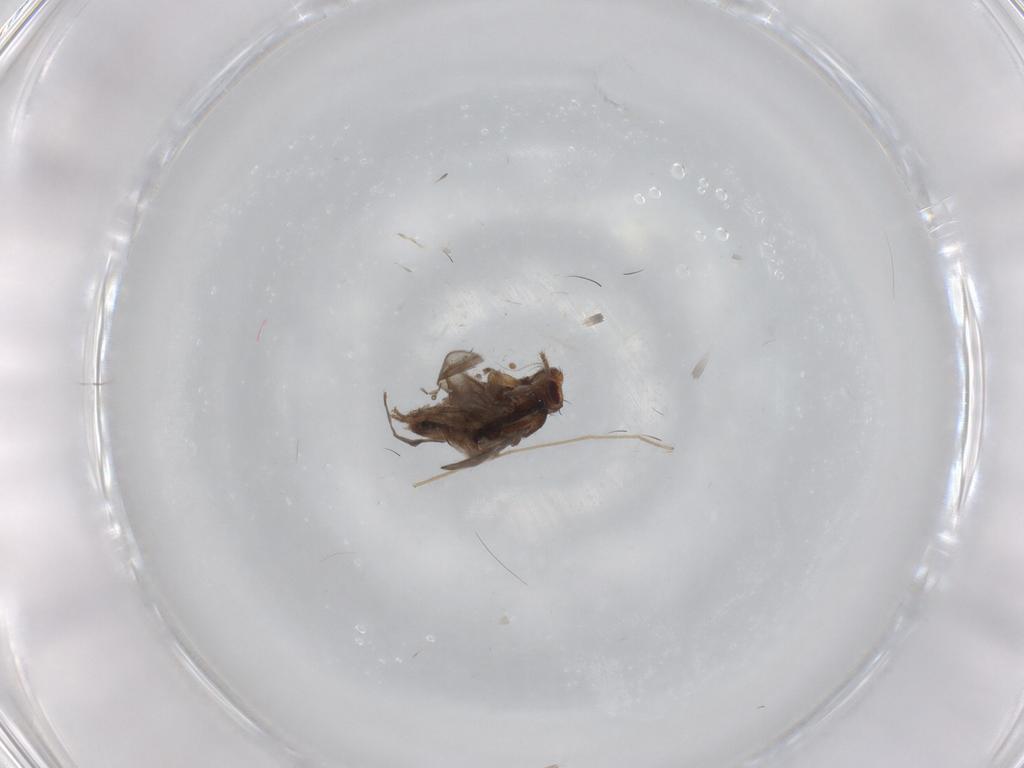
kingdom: Animalia
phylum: Arthropoda
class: Insecta
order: Diptera
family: Sphaeroceridae
